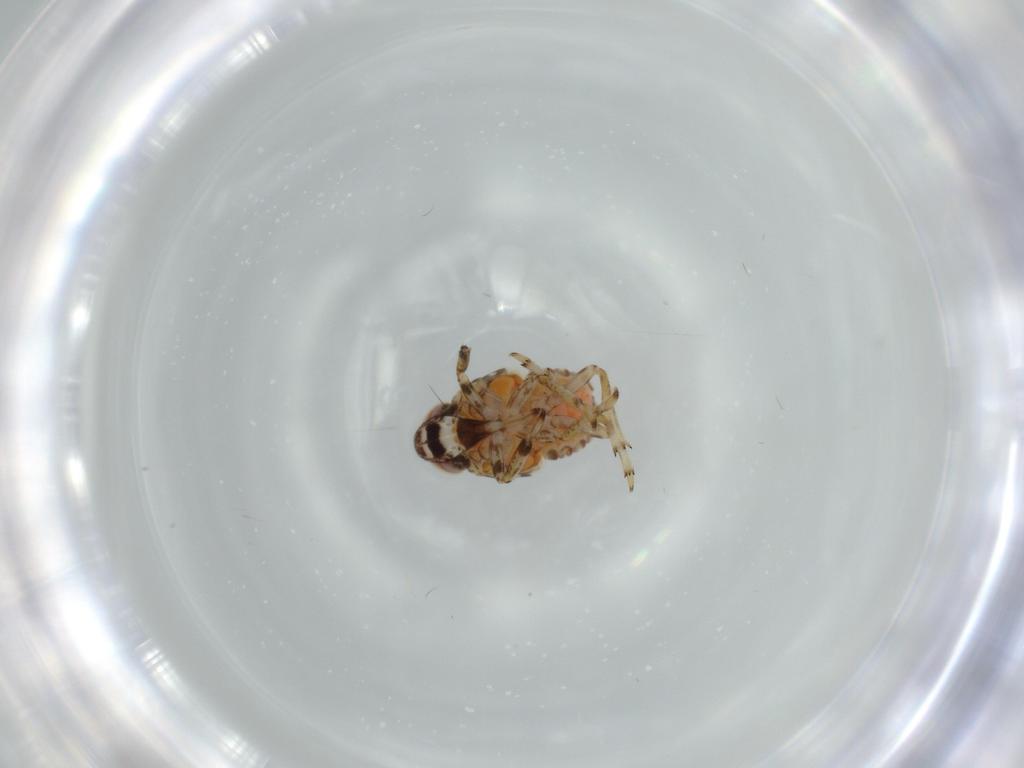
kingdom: Animalia
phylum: Arthropoda
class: Insecta
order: Hemiptera
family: Issidae
